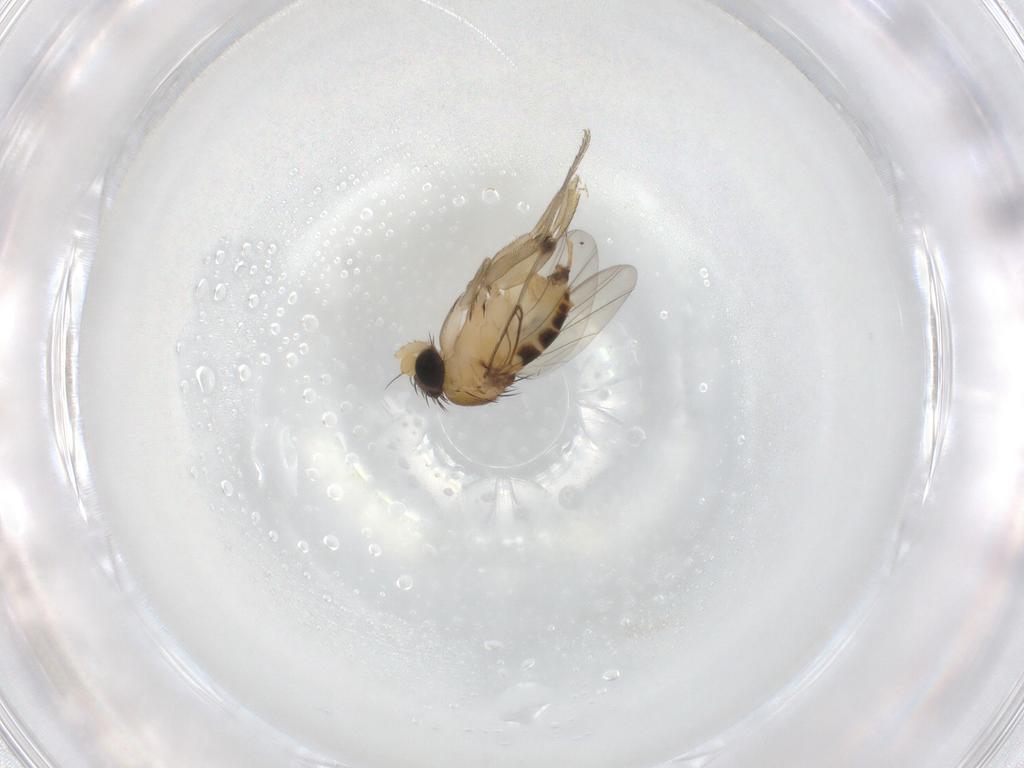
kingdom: Animalia
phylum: Arthropoda
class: Insecta
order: Diptera
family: Phoridae
